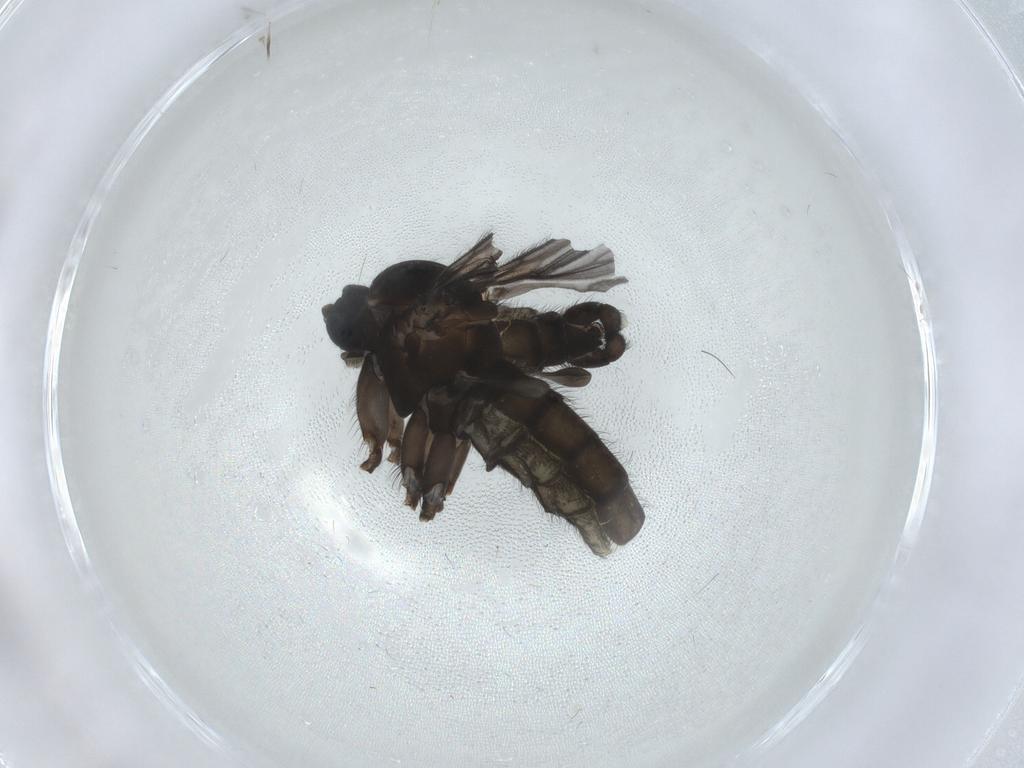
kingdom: Animalia
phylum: Arthropoda
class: Insecta
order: Diptera
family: Sciaridae
